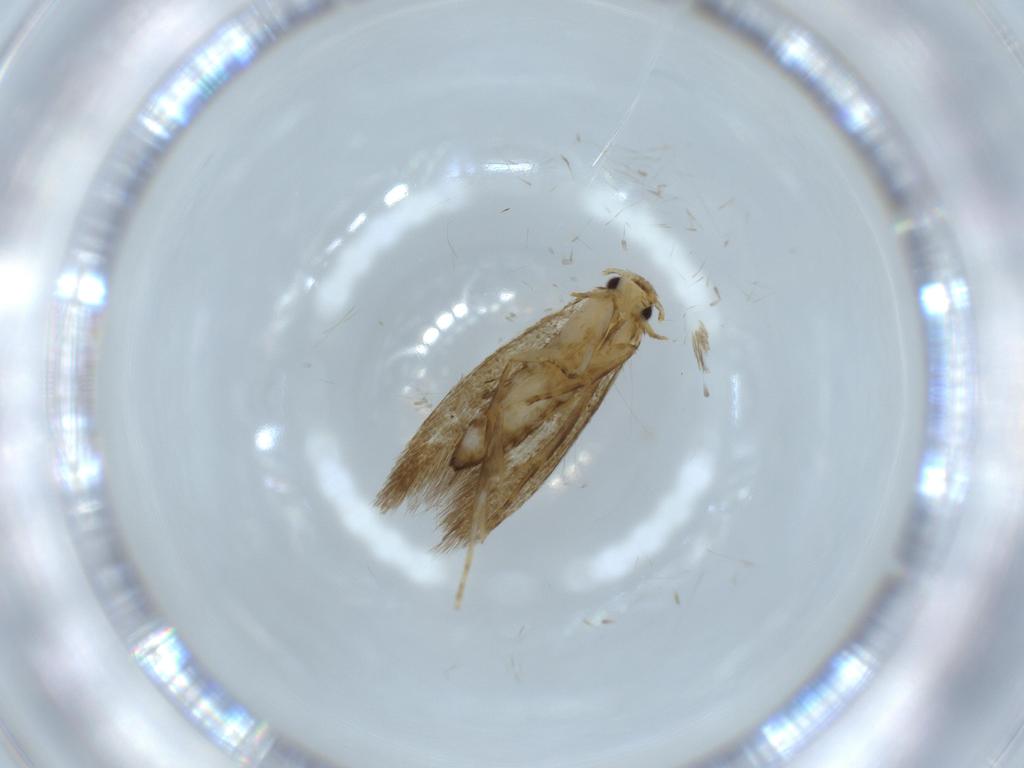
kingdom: Animalia
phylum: Arthropoda
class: Insecta
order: Lepidoptera
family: Tineidae
